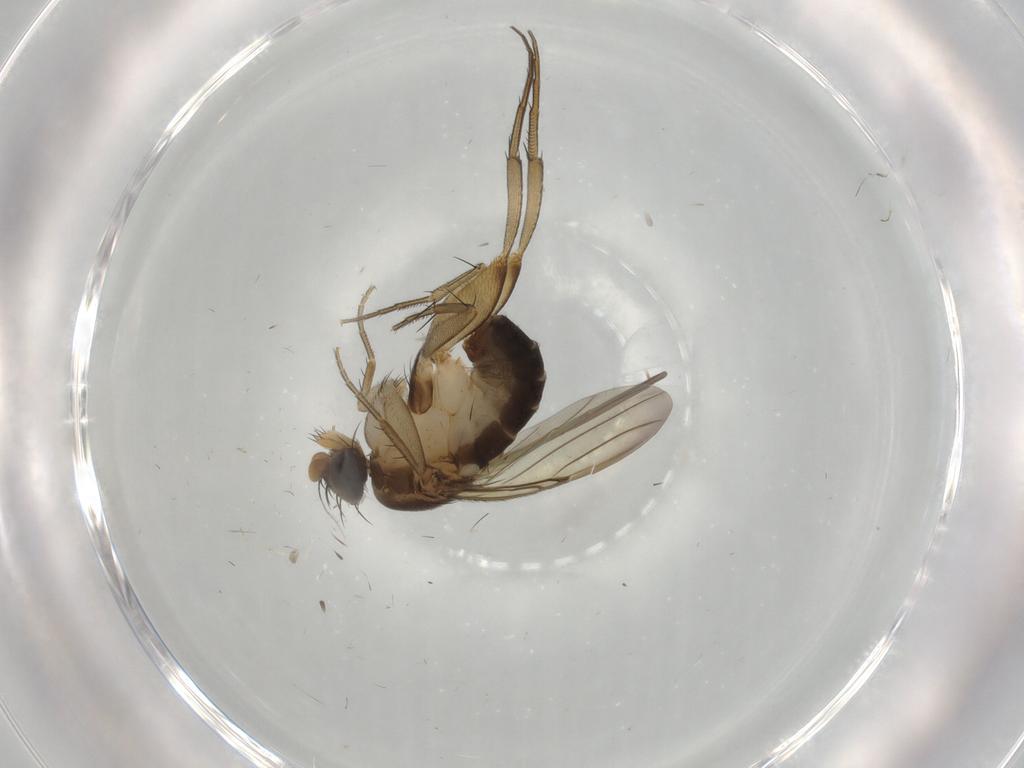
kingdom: Animalia
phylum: Arthropoda
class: Insecta
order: Diptera
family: Phoridae
